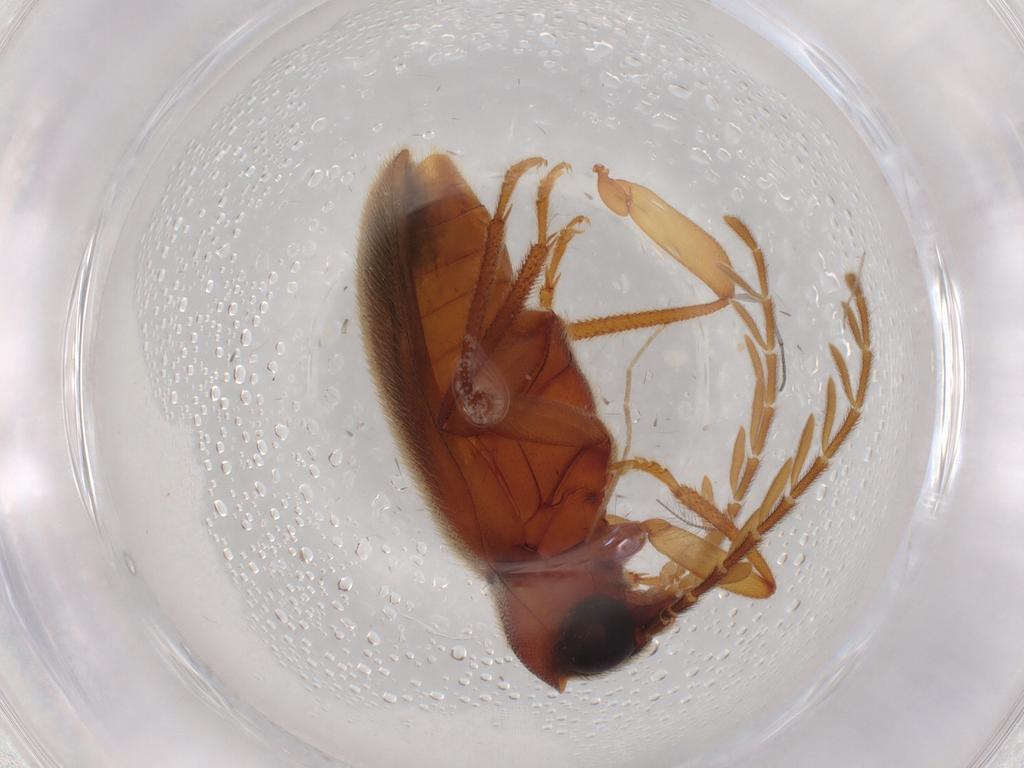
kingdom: Animalia
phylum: Arthropoda
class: Insecta
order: Coleoptera
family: Ptilodactylidae
